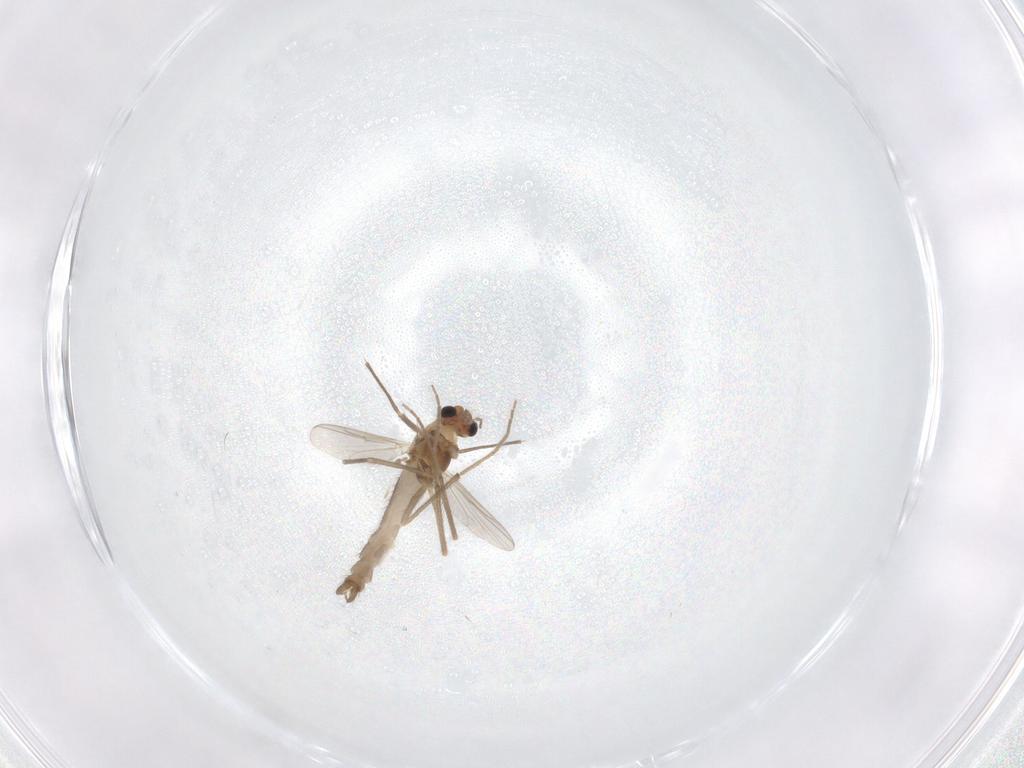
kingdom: Animalia
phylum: Arthropoda
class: Insecta
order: Diptera
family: Chironomidae
